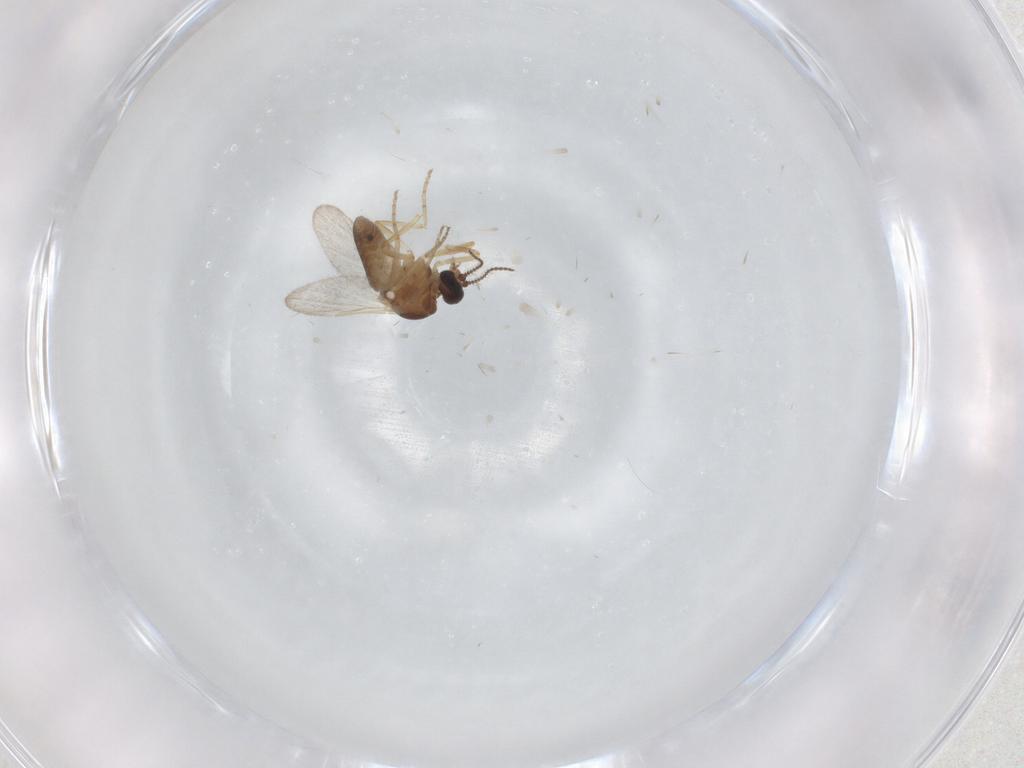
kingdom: Animalia
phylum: Arthropoda
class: Insecta
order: Diptera
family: Ceratopogonidae
